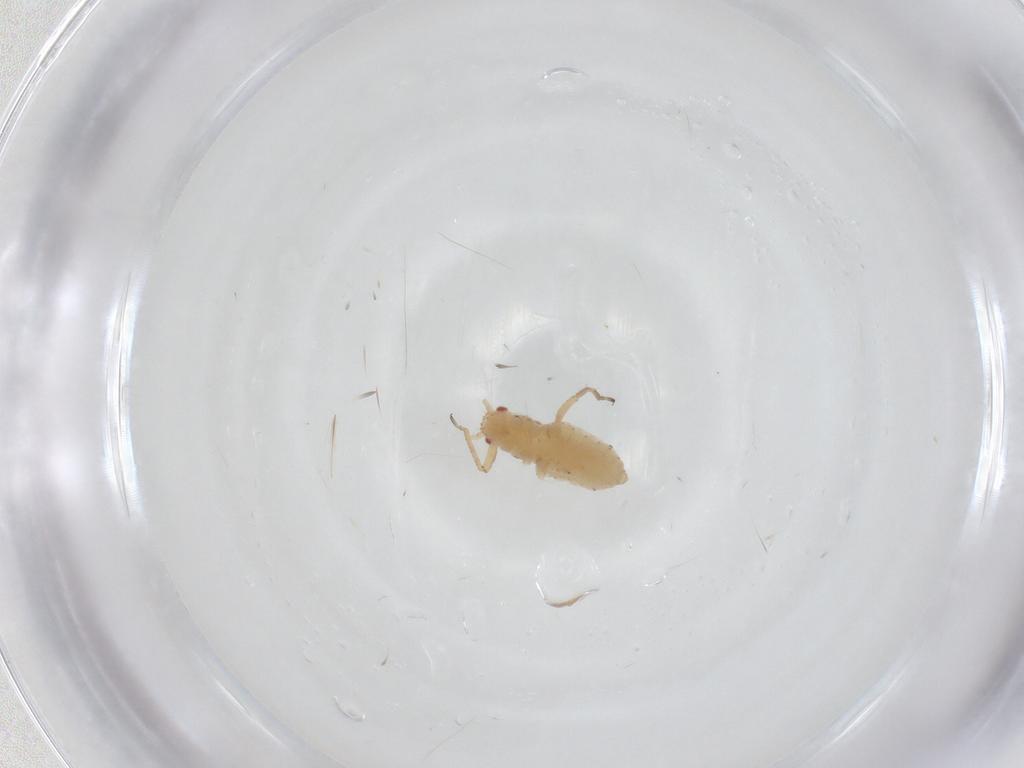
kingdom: Animalia
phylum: Arthropoda
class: Insecta
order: Hemiptera
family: Aphididae
